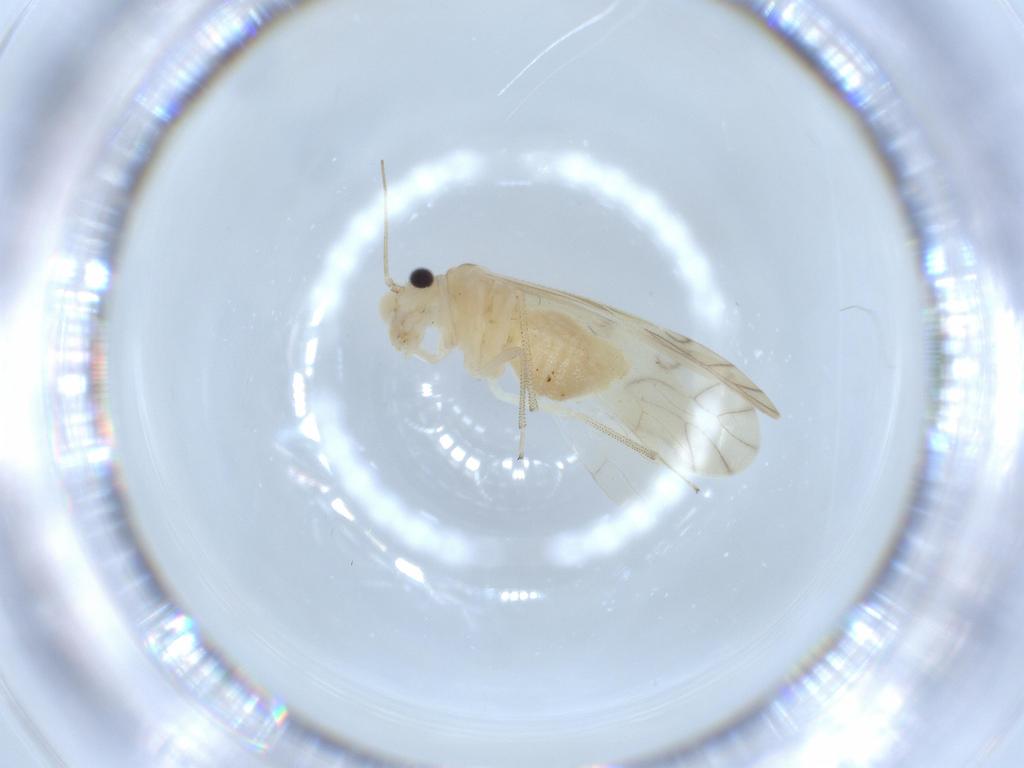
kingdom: Animalia
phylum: Arthropoda
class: Insecta
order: Psocodea
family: Caeciliusidae
